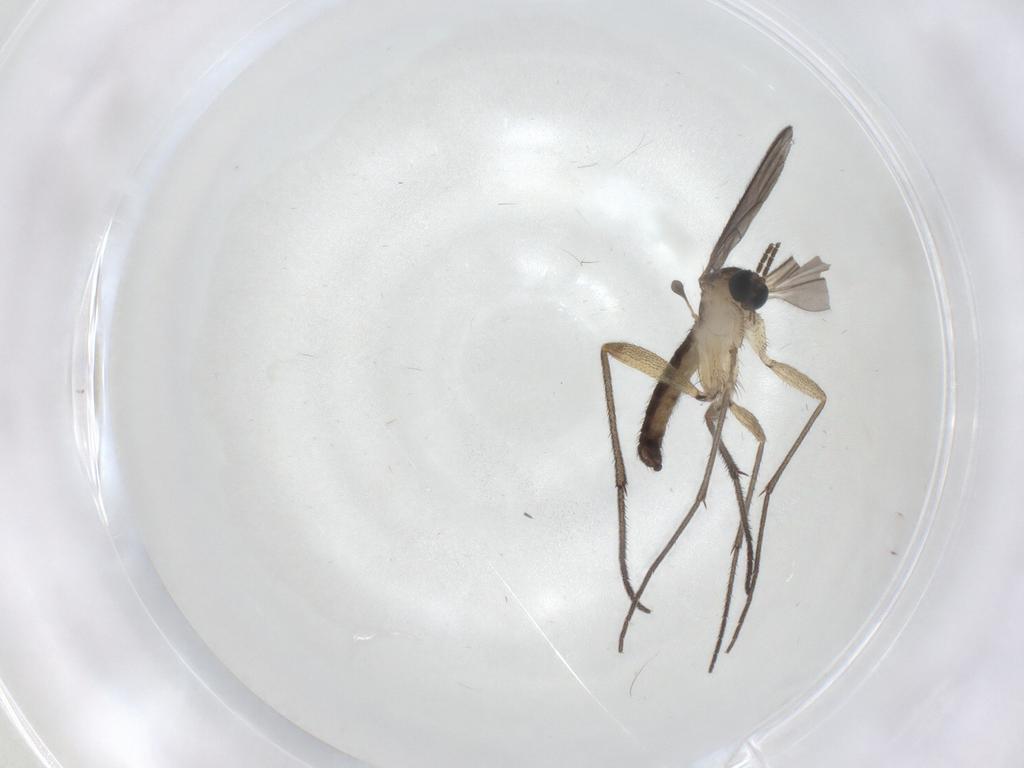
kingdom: Animalia
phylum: Arthropoda
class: Insecta
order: Diptera
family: Sciaridae
